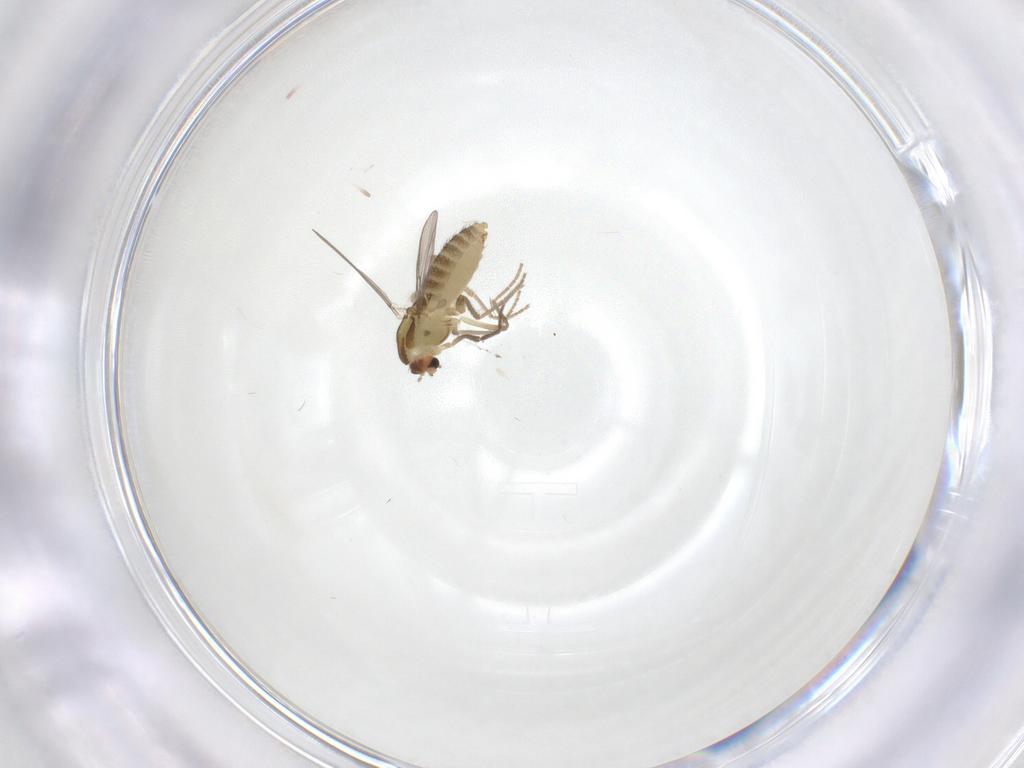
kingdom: Animalia
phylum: Arthropoda
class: Insecta
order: Diptera
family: Chironomidae
